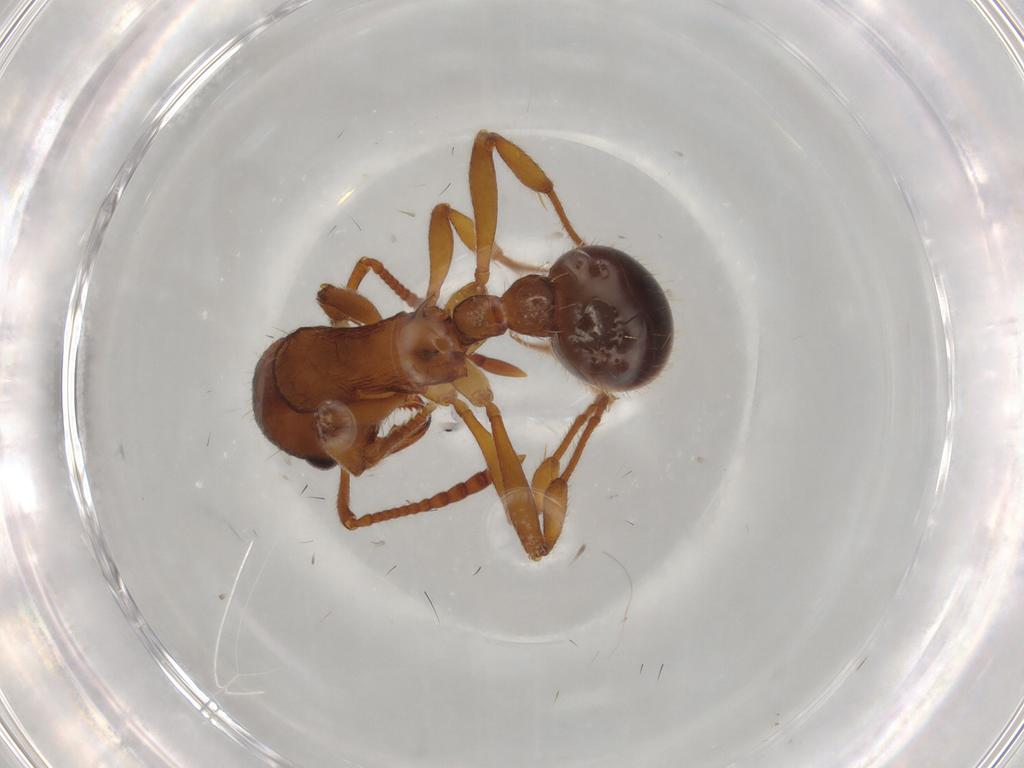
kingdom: Animalia
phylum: Arthropoda
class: Insecta
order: Hymenoptera
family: Formicidae
